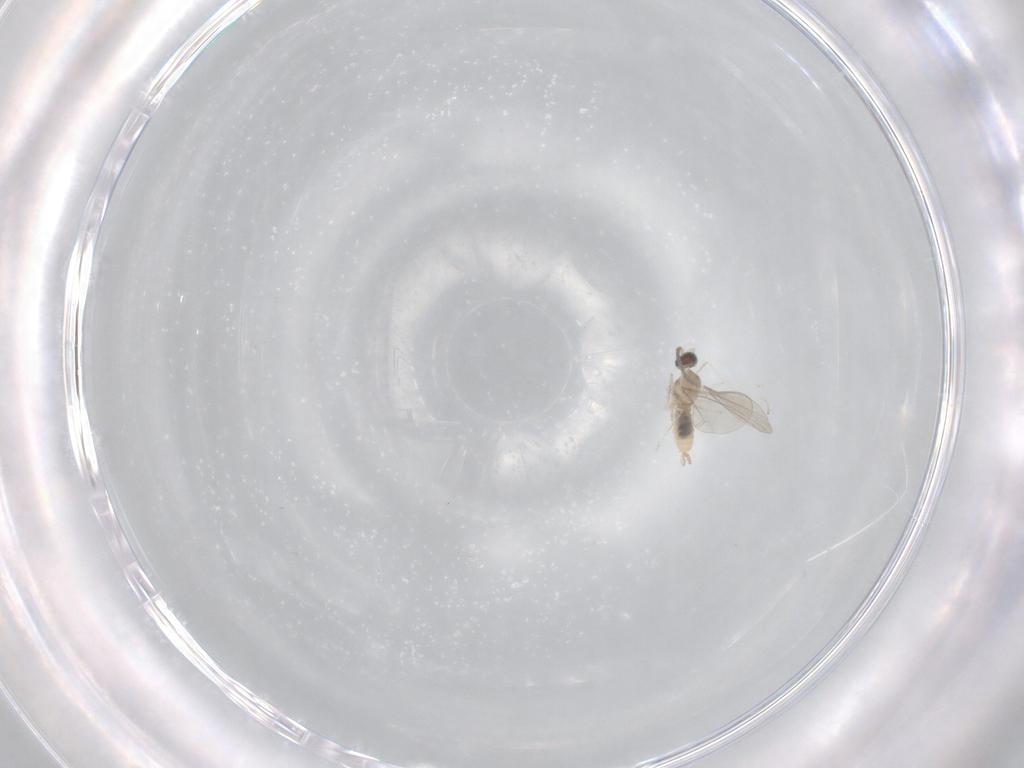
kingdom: Animalia
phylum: Arthropoda
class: Insecta
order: Diptera
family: Cecidomyiidae
